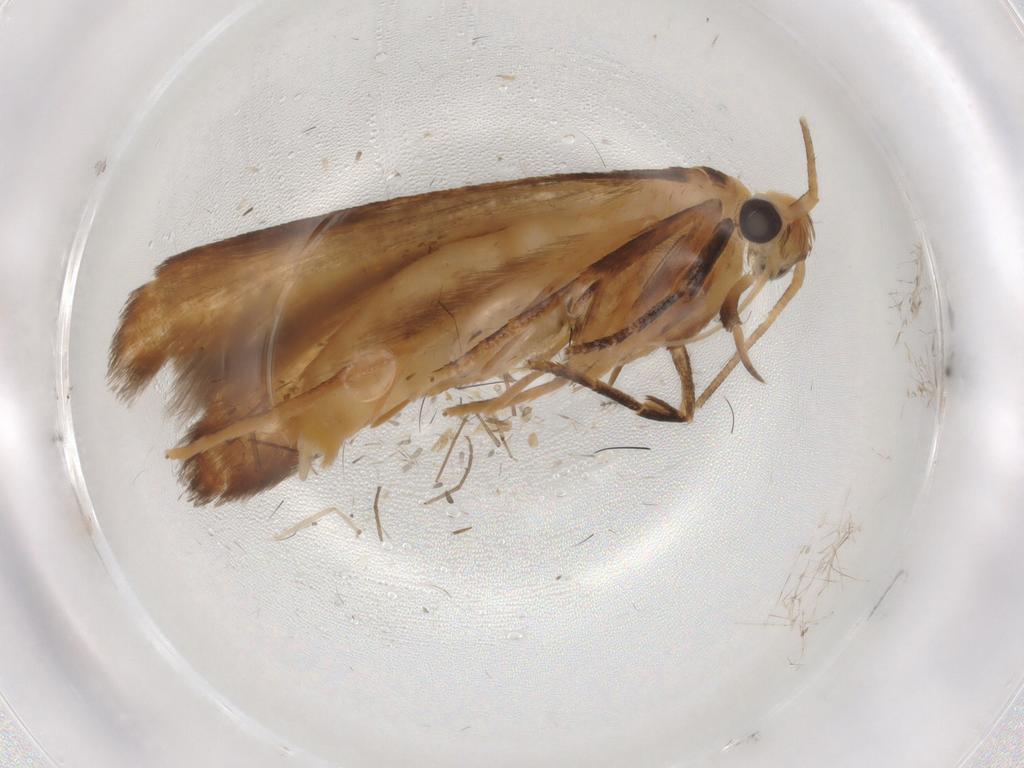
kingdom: Animalia
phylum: Arthropoda
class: Insecta
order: Lepidoptera
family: Nolidae
